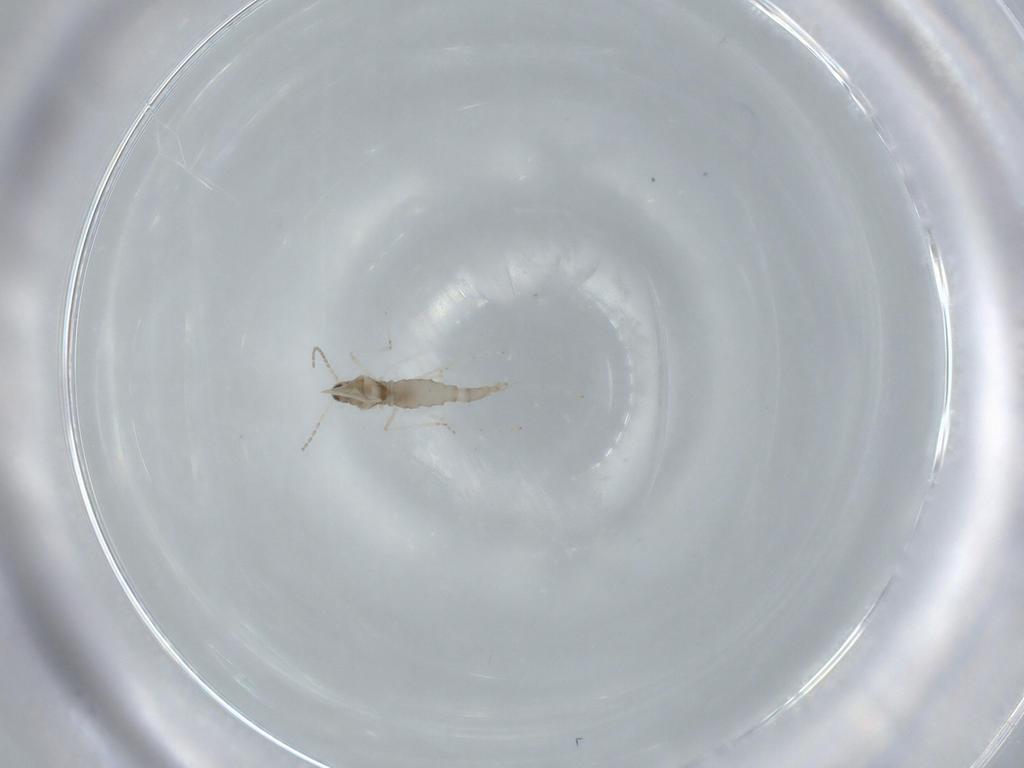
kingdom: Animalia
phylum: Arthropoda
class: Insecta
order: Diptera
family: Cecidomyiidae
